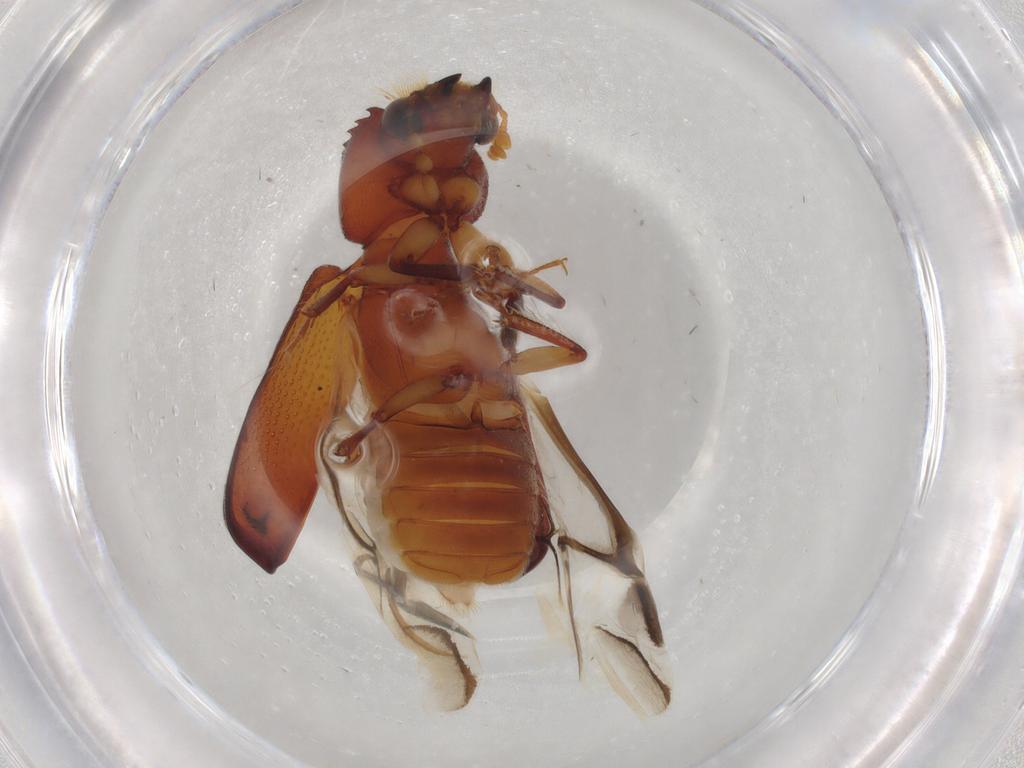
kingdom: Animalia
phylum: Arthropoda
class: Insecta
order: Coleoptera
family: Bostrichidae
